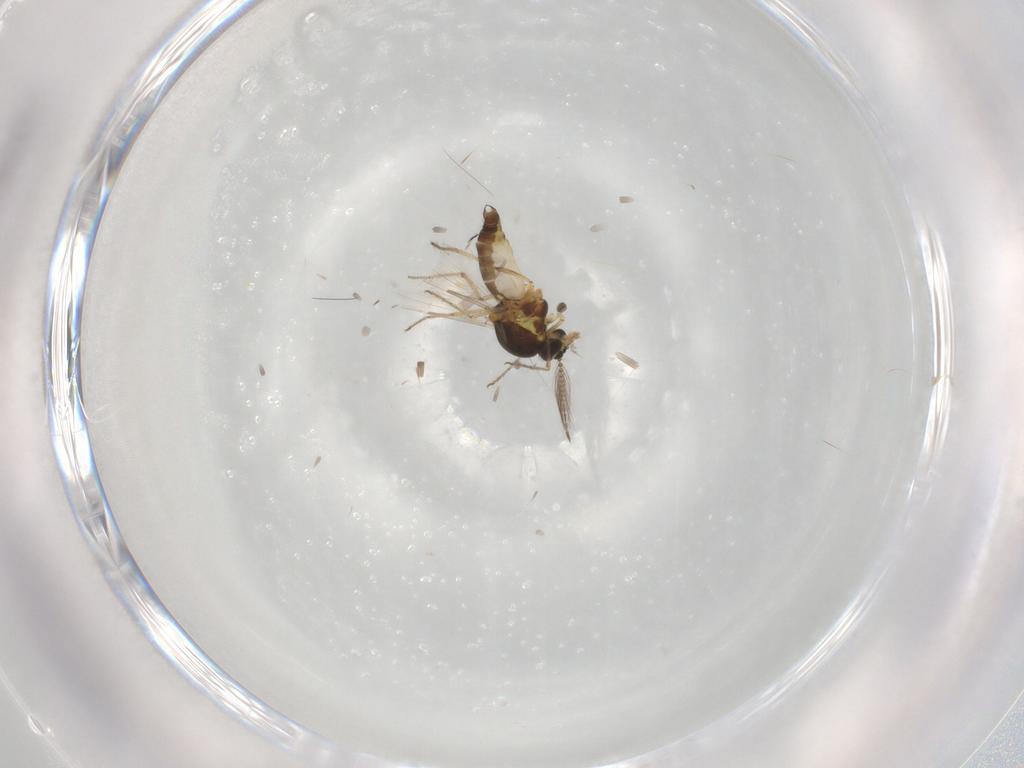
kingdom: Animalia
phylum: Arthropoda
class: Insecta
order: Diptera
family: Ceratopogonidae
